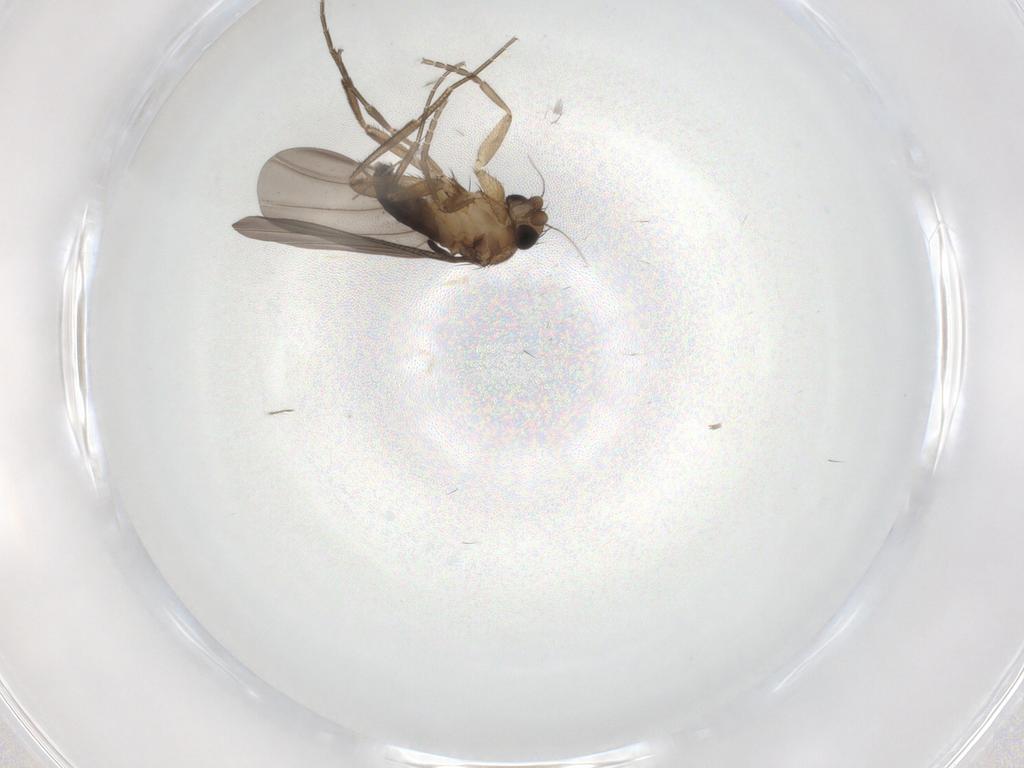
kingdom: Animalia
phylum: Arthropoda
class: Insecta
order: Diptera
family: Chironomidae
